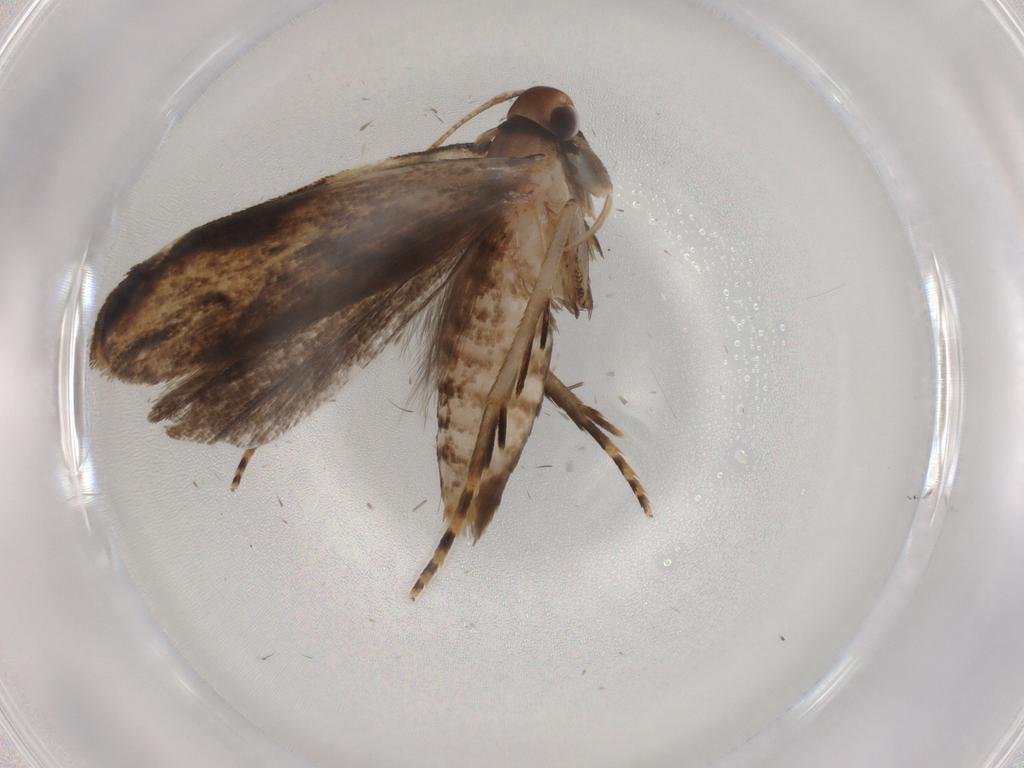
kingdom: Animalia
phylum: Arthropoda
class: Insecta
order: Lepidoptera
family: Gelechiidae
